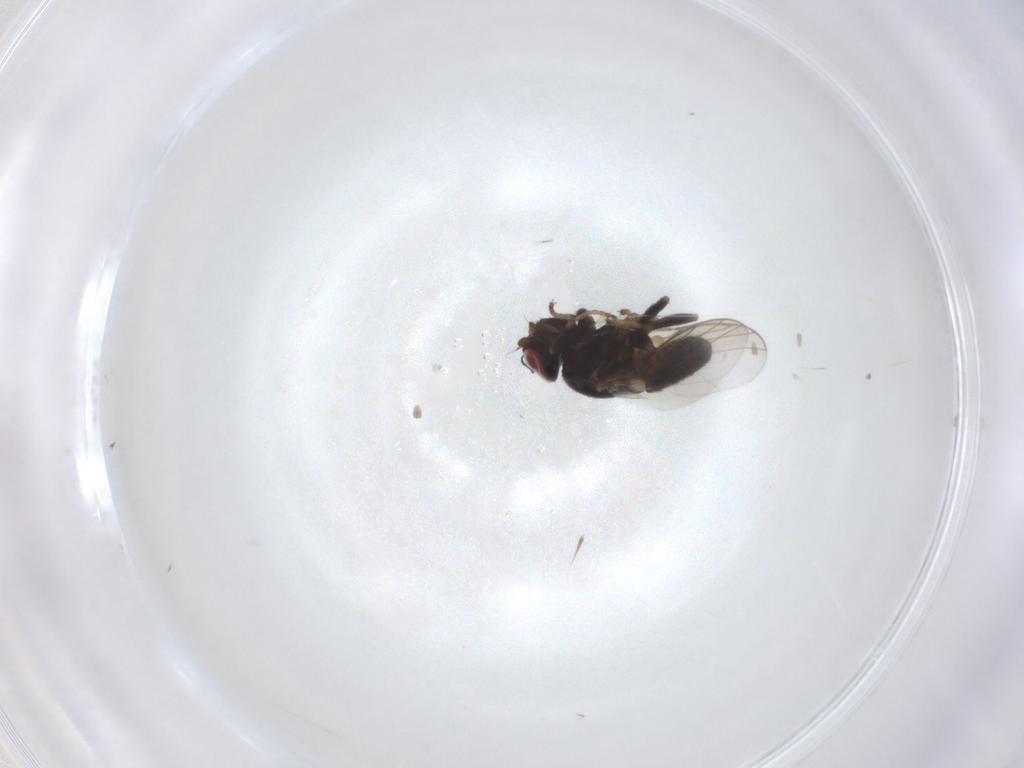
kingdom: Animalia
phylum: Arthropoda
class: Insecta
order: Diptera
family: Chloropidae
